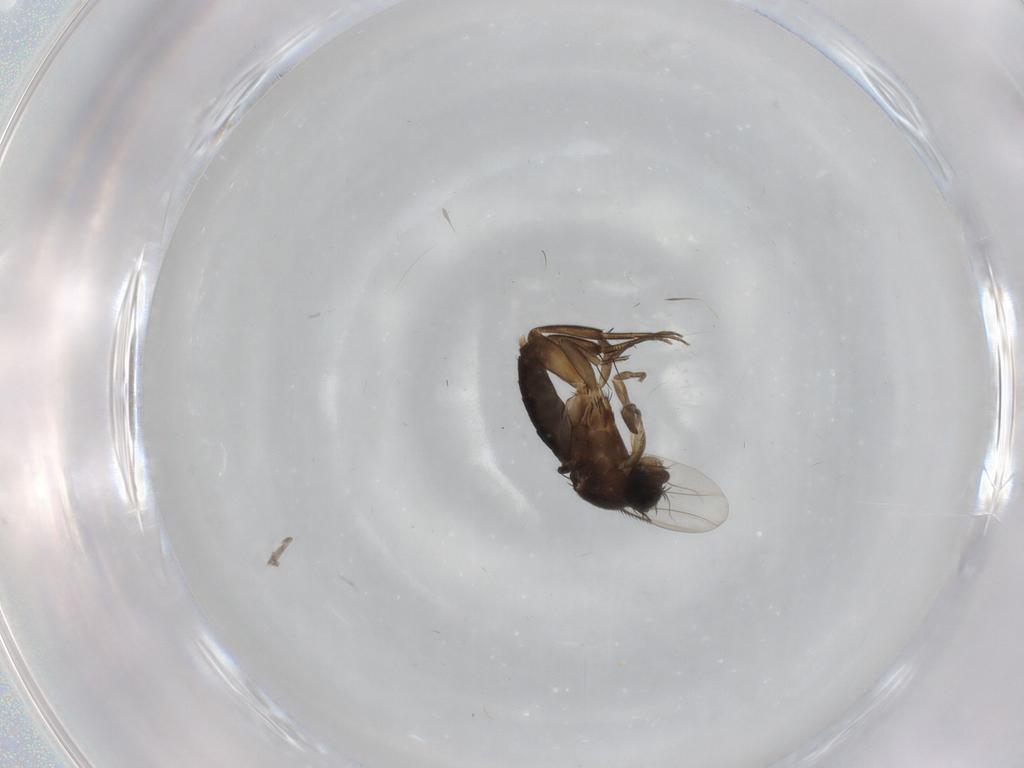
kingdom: Animalia
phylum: Arthropoda
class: Insecta
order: Diptera
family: Phoridae
